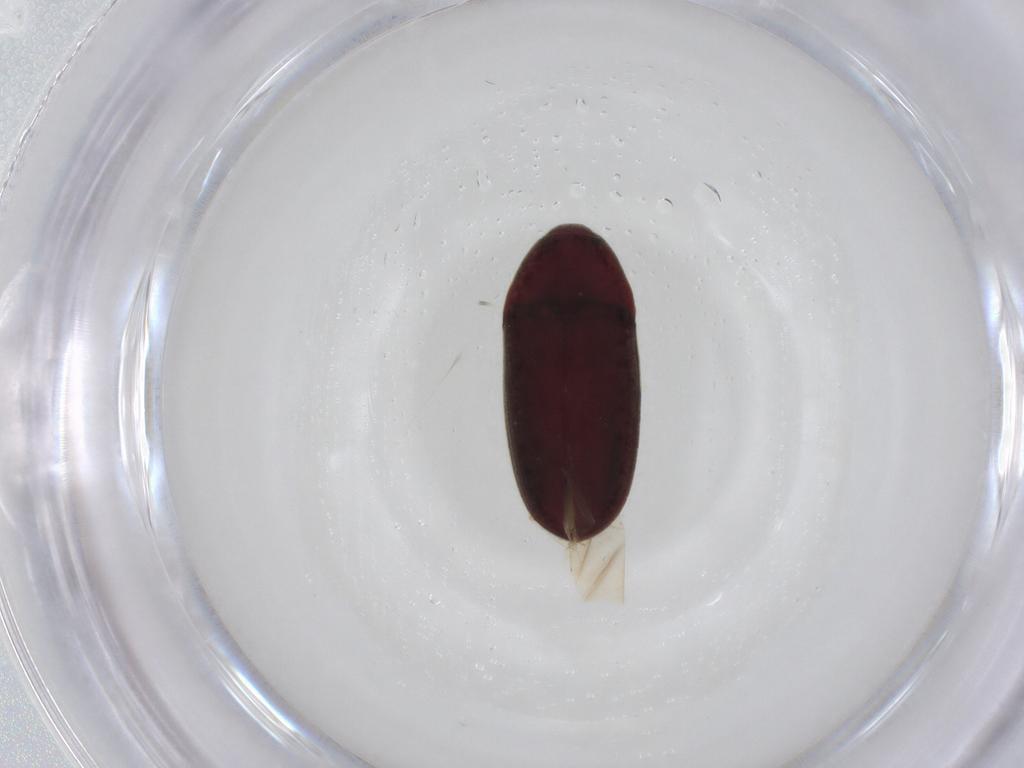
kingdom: Animalia
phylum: Arthropoda
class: Insecta
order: Coleoptera
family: Throscidae
